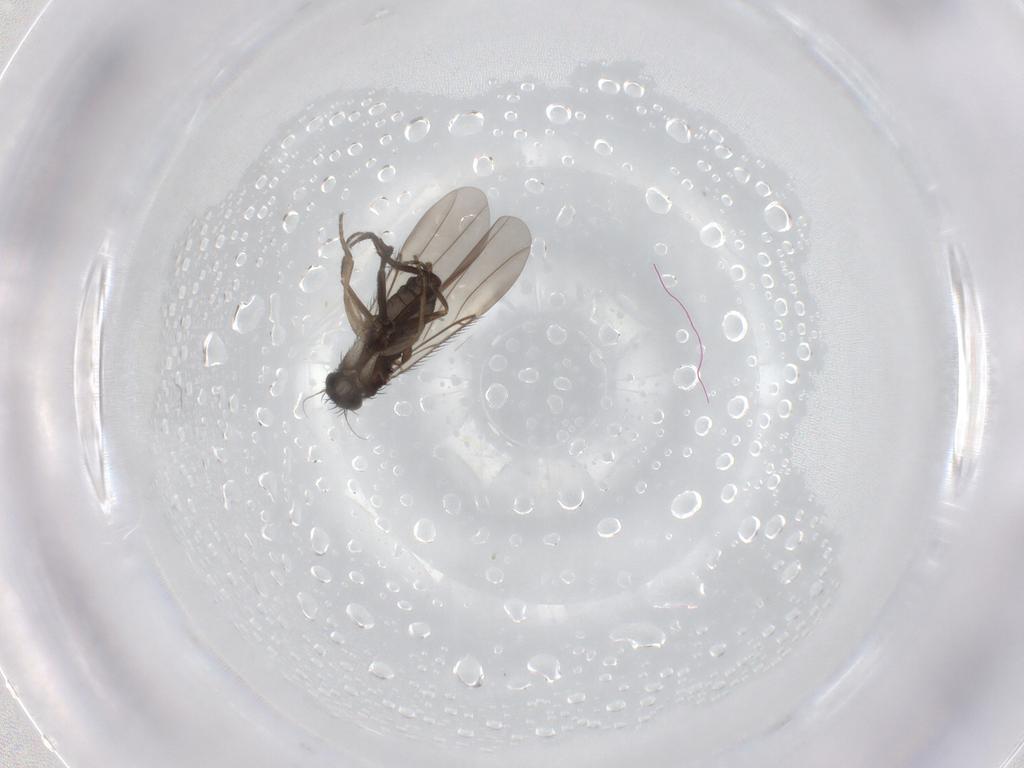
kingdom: Animalia
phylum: Arthropoda
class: Insecta
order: Diptera
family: Phoridae
